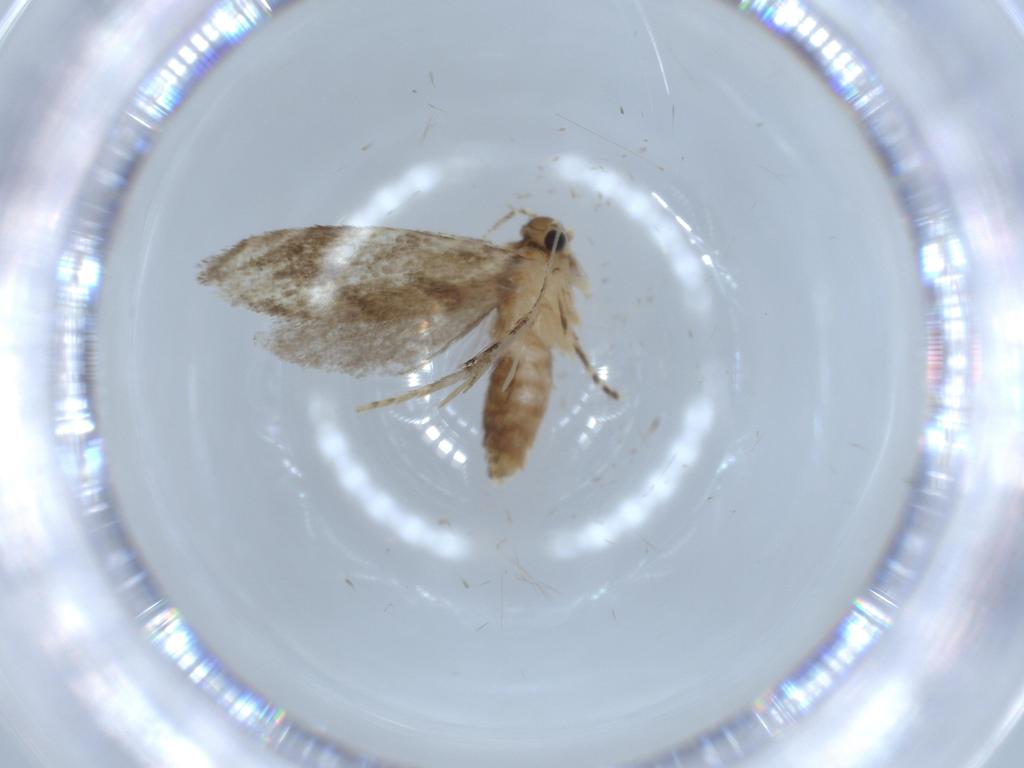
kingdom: Animalia
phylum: Arthropoda
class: Insecta
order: Lepidoptera
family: Tineidae
